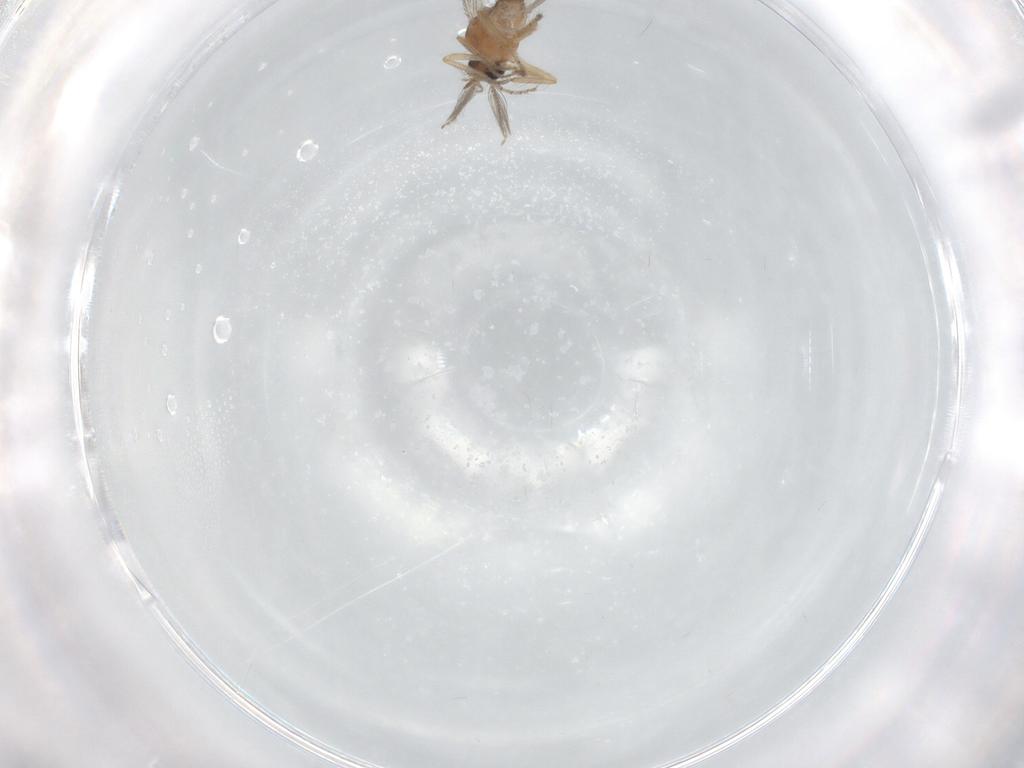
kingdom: Animalia
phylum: Arthropoda
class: Insecta
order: Diptera
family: Ceratopogonidae
